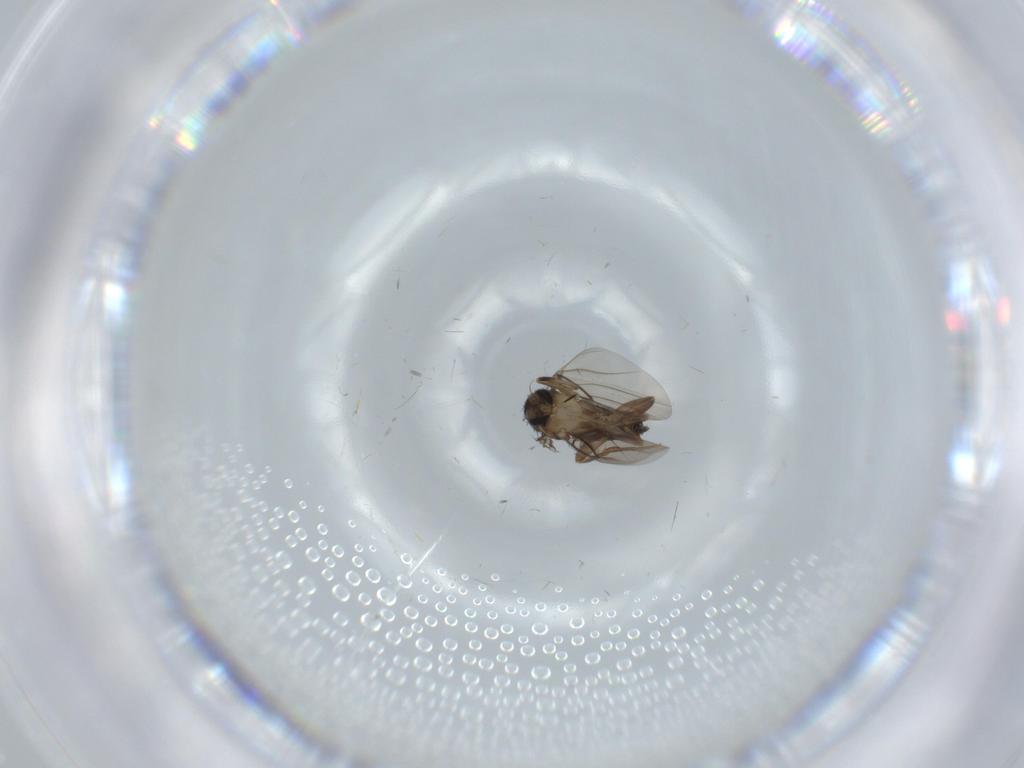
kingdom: Animalia
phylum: Arthropoda
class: Insecta
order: Diptera
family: Phoridae
